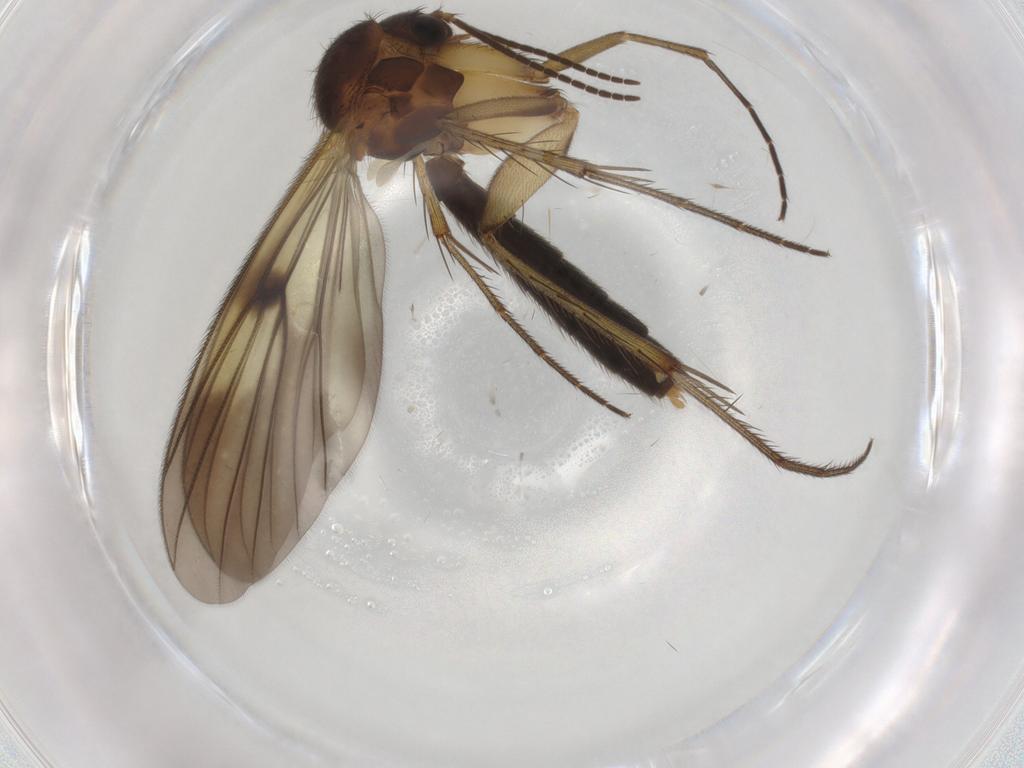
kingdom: Animalia
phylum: Arthropoda
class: Insecta
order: Diptera
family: Mycetophilidae
